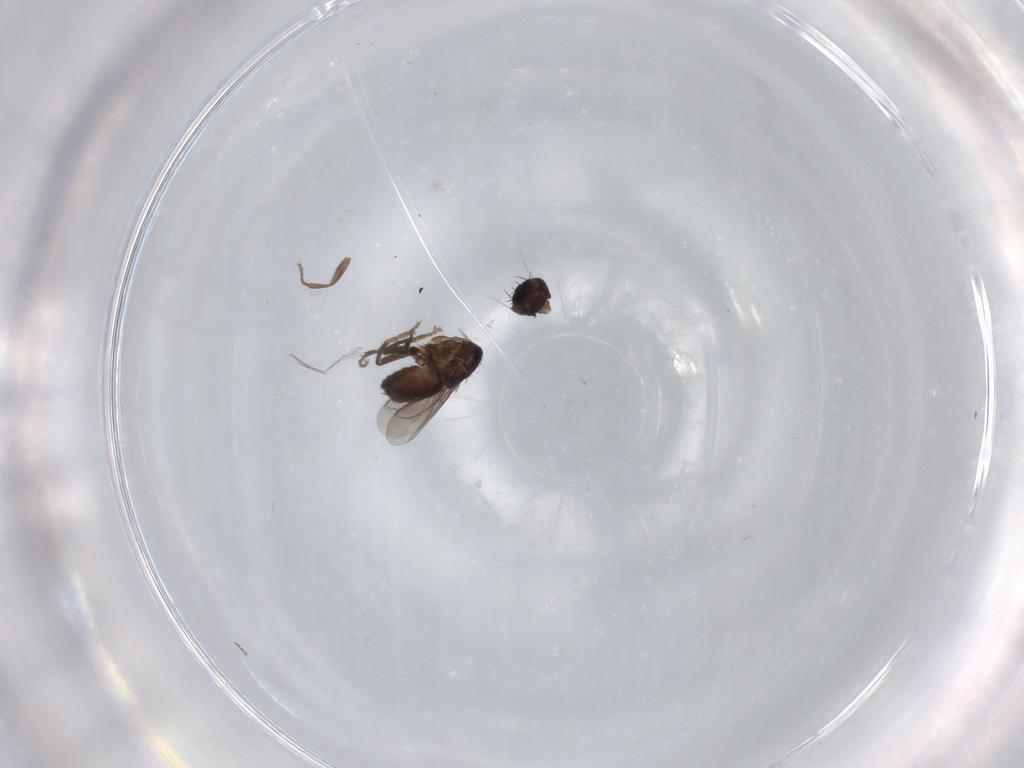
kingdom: Animalia
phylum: Arthropoda
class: Insecta
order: Diptera
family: Sphaeroceridae
